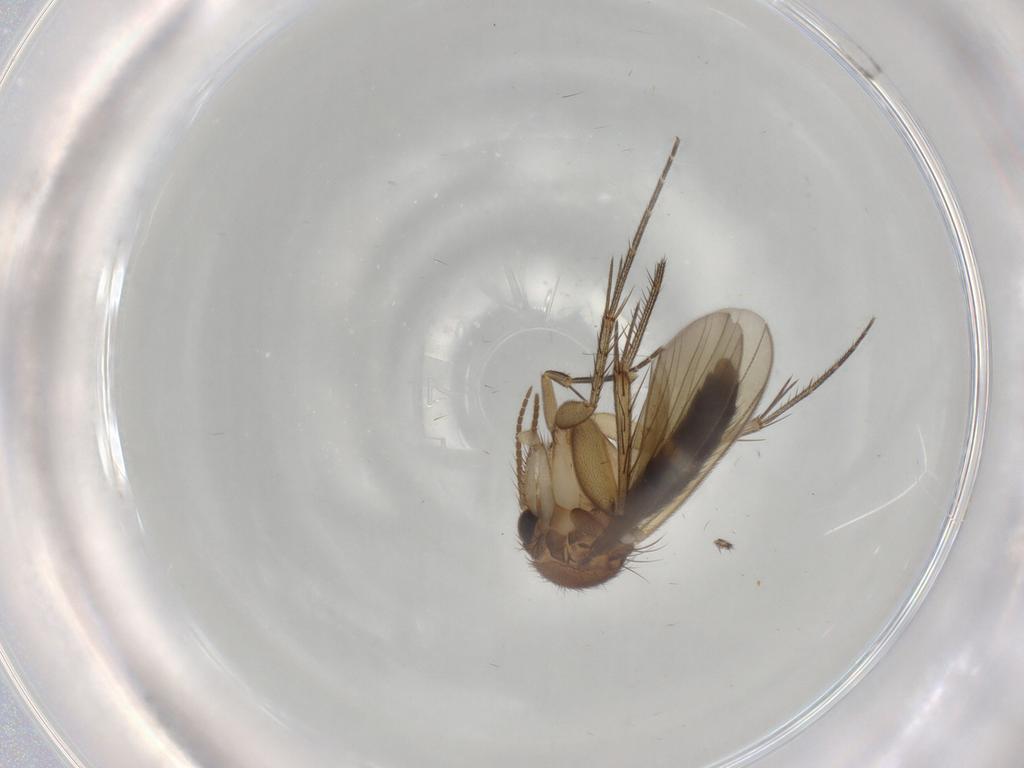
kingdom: Animalia
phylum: Arthropoda
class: Insecta
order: Diptera
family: Mycetophilidae
